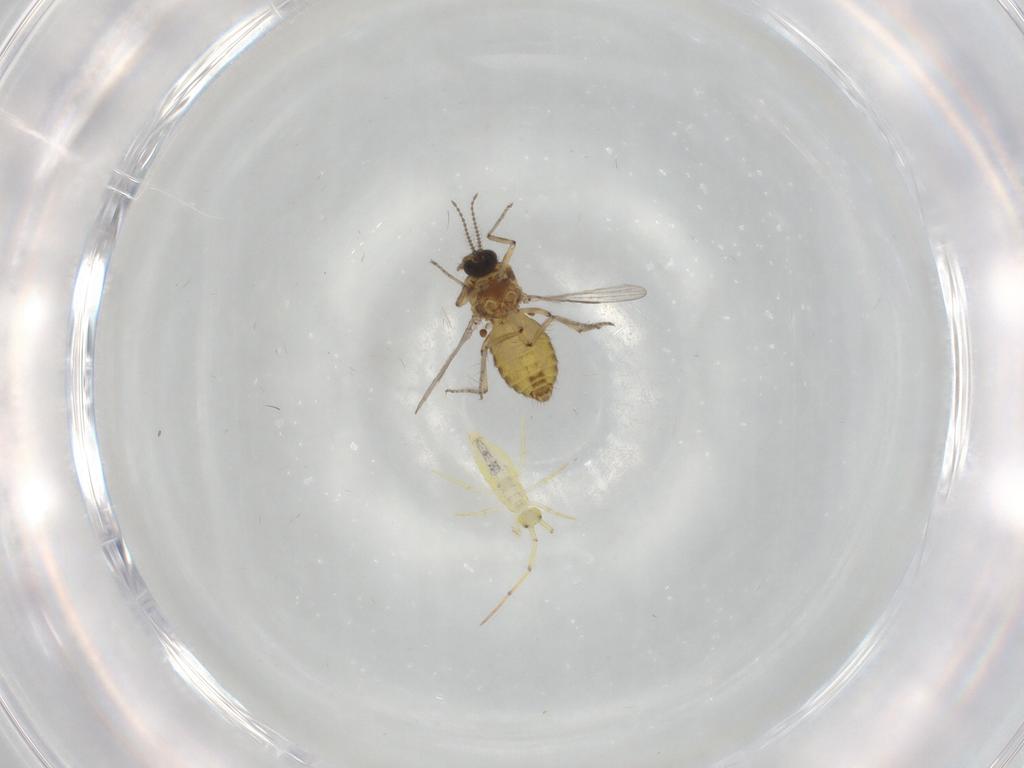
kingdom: Animalia
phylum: Arthropoda
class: Insecta
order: Diptera
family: Ceratopogonidae
